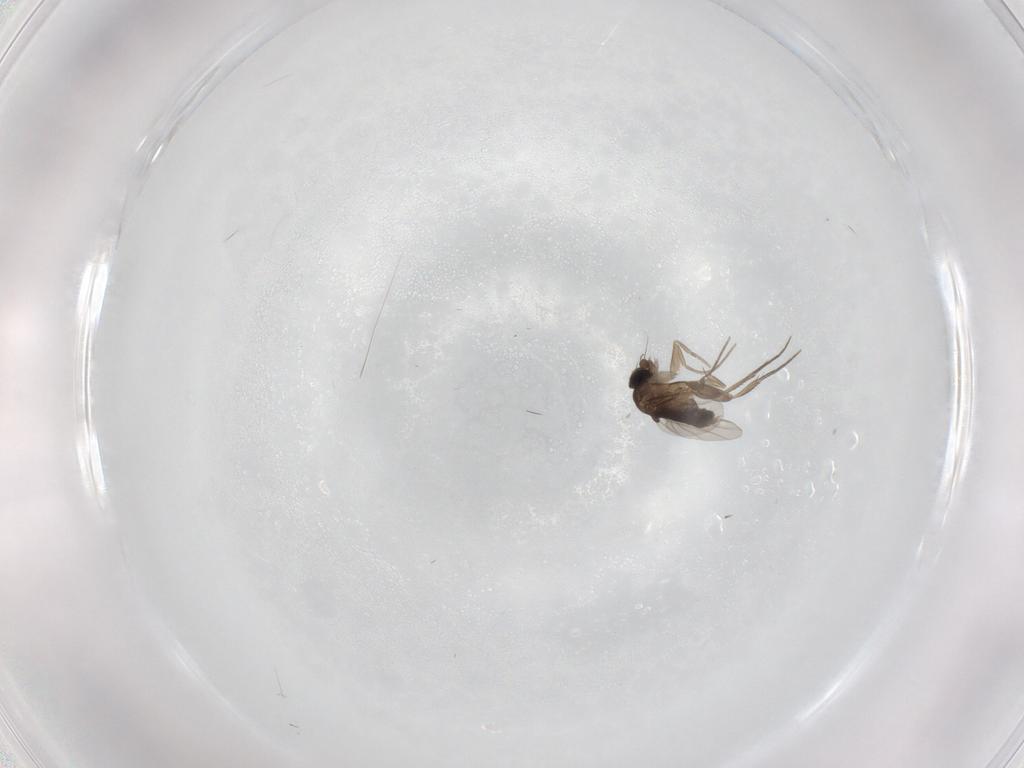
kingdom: Animalia
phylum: Arthropoda
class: Insecta
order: Diptera
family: Phoridae
